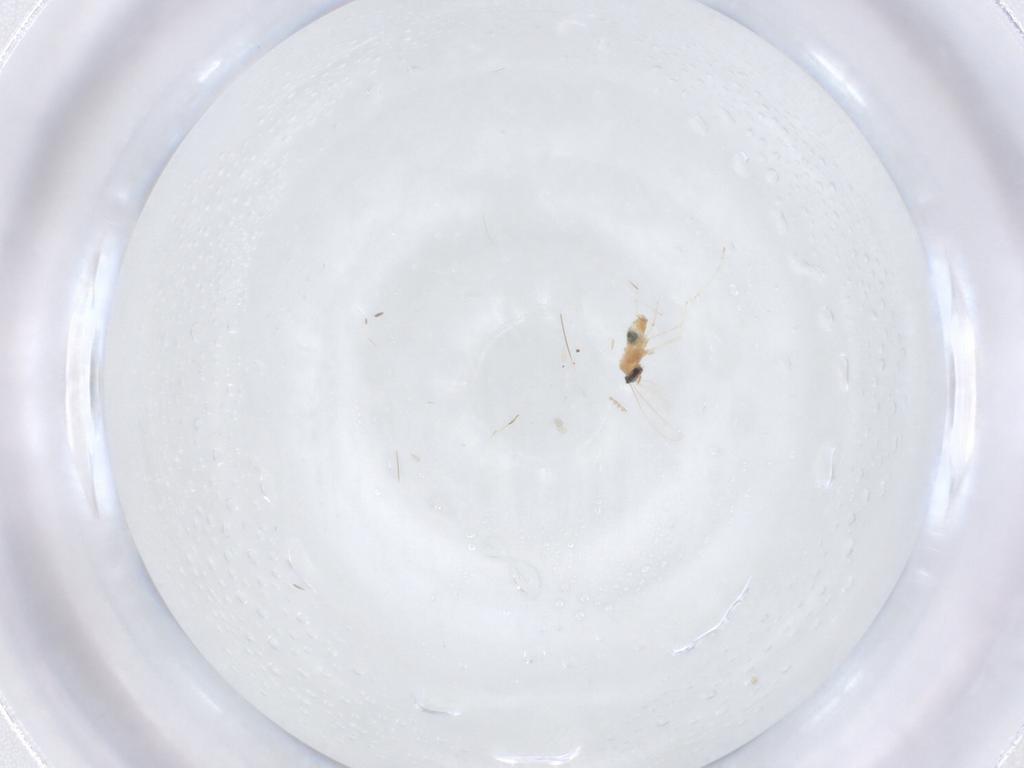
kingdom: Animalia
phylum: Arthropoda
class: Insecta
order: Diptera
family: Cecidomyiidae
